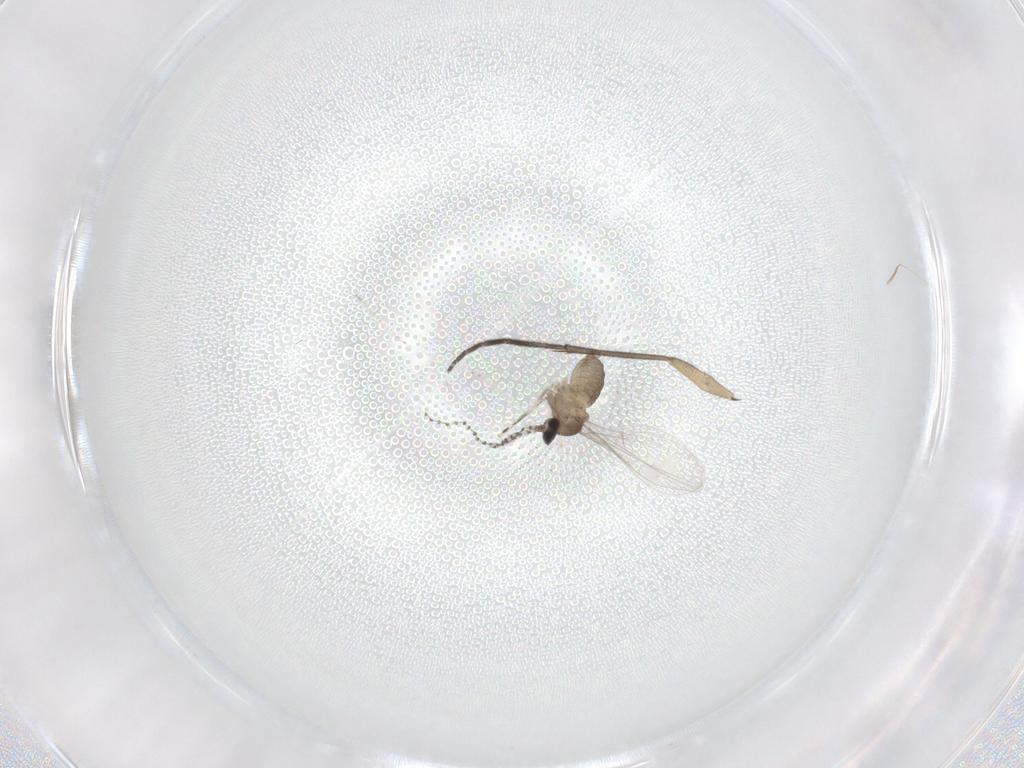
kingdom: Animalia
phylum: Arthropoda
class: Insecta
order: Diptera
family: Cecidomyiidae
